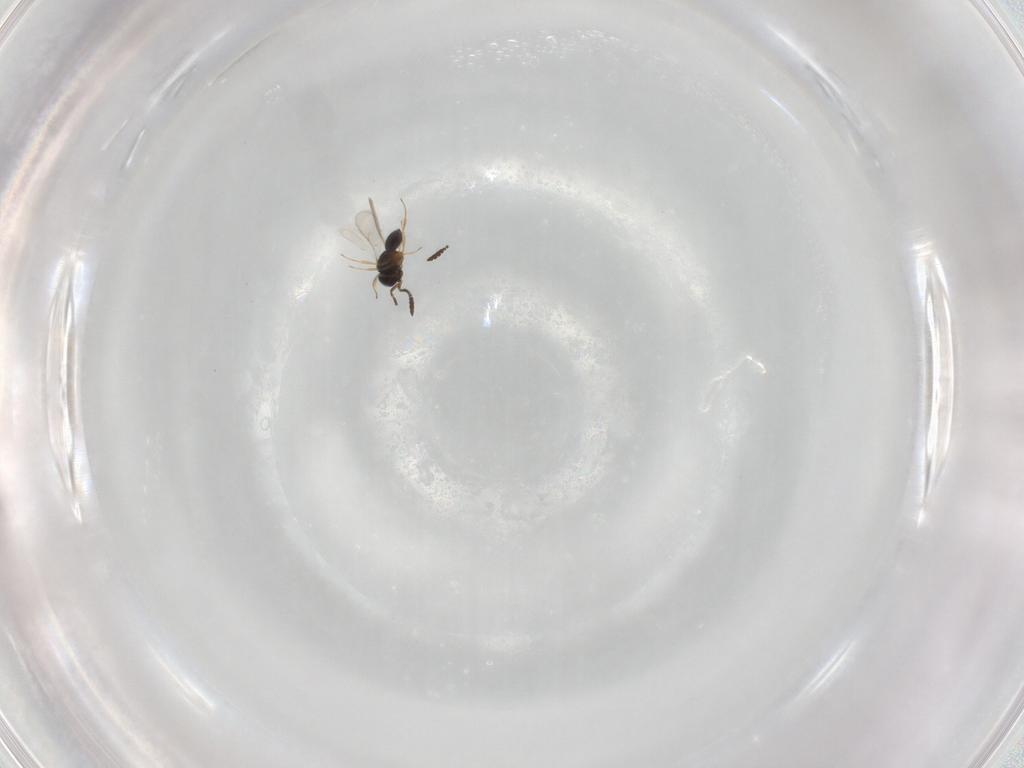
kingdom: Animalia
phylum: Arthropoda
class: Insecta
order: Hymenoptera
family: Scelionidae
